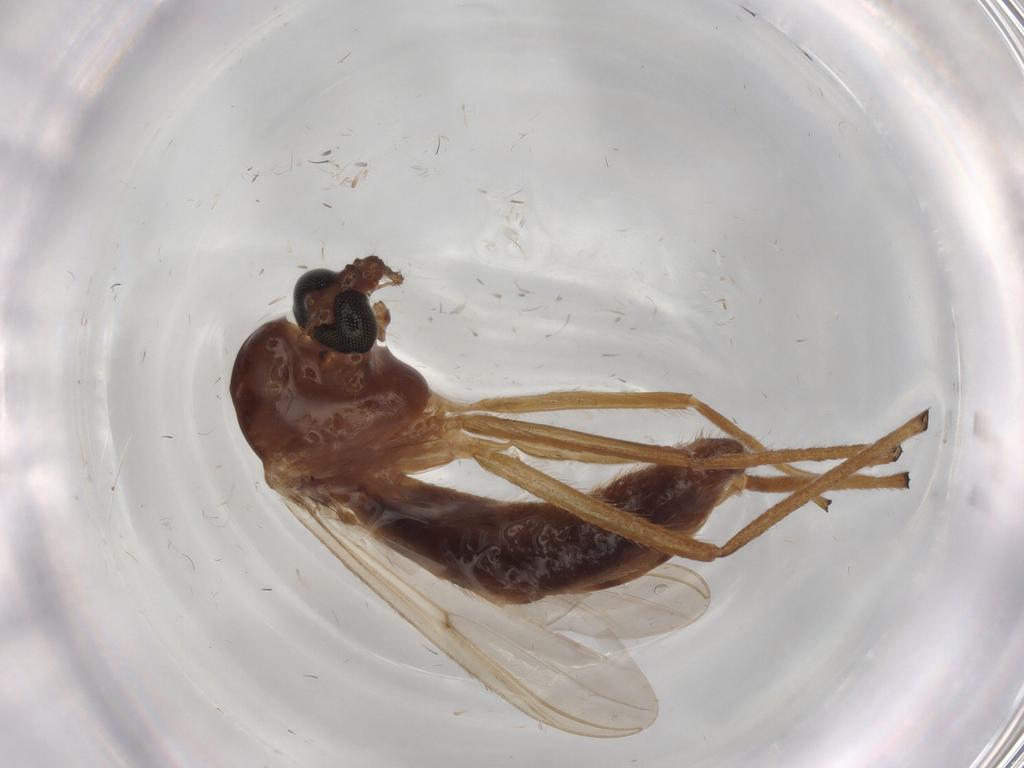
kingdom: Animalia
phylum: Arthropoda
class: Insecta
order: Diptera
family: Chironomidae
